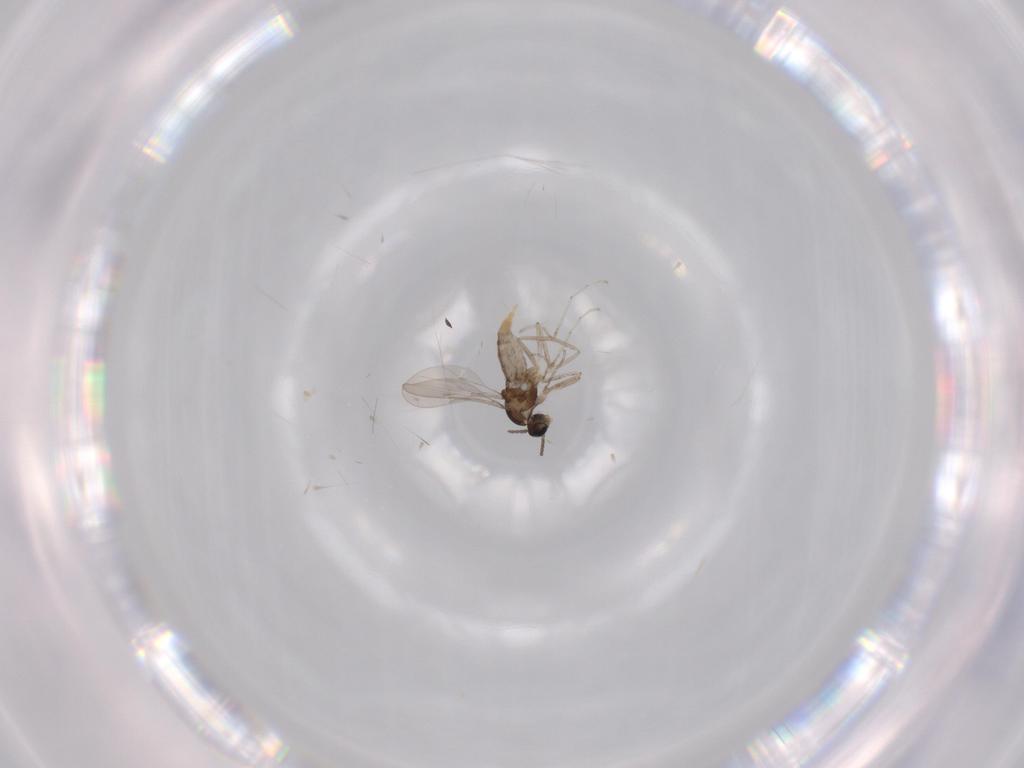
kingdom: Animalia
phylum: Arthropoda
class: Insecta
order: Diptera
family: Cecidomyiidae
